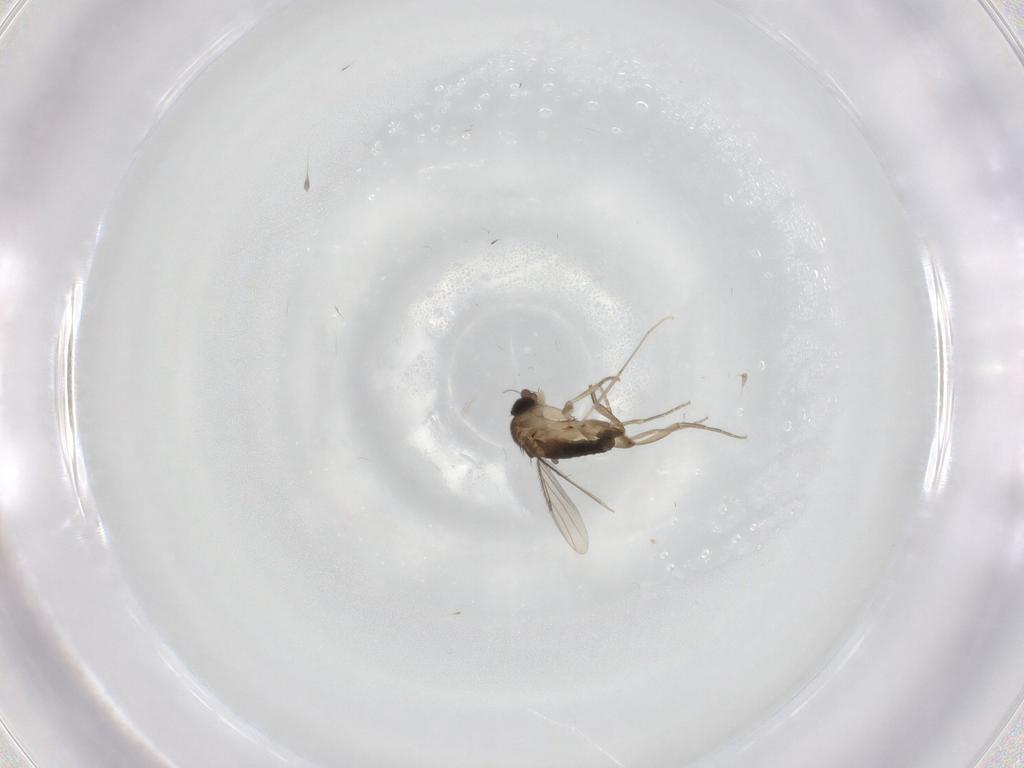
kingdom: Animalia
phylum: Arthropoda
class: Insecta
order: Diptera
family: Phoridae
